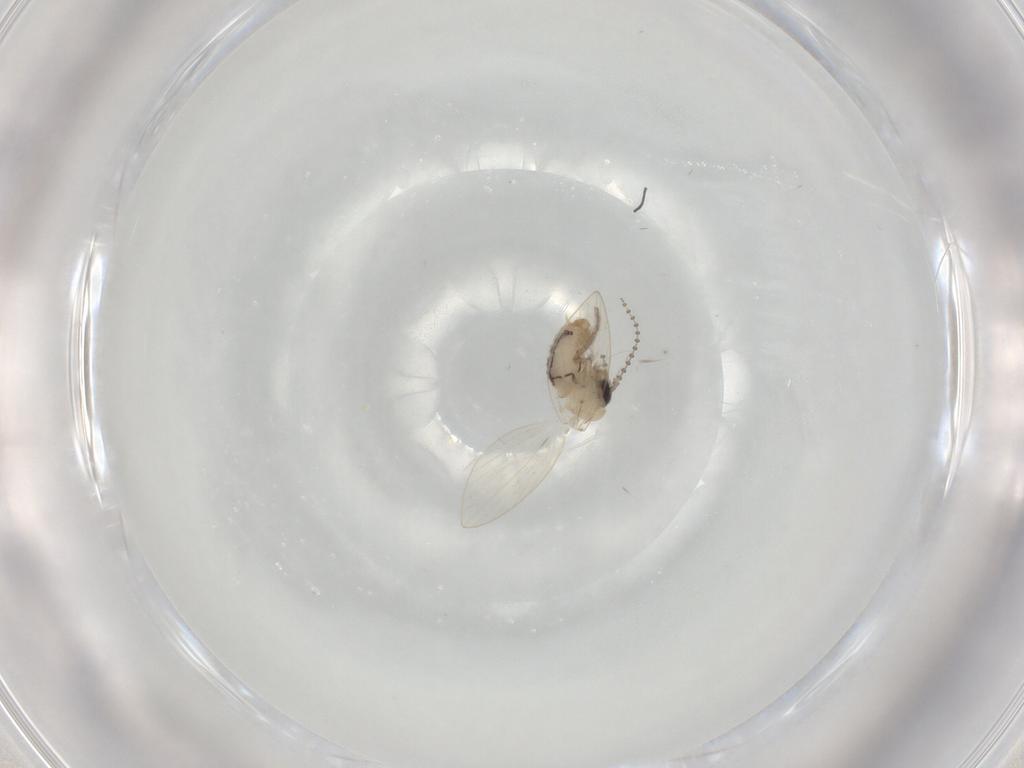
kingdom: Animalia
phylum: Arthropoda
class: Insecta
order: Diptera
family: Psychodidae
